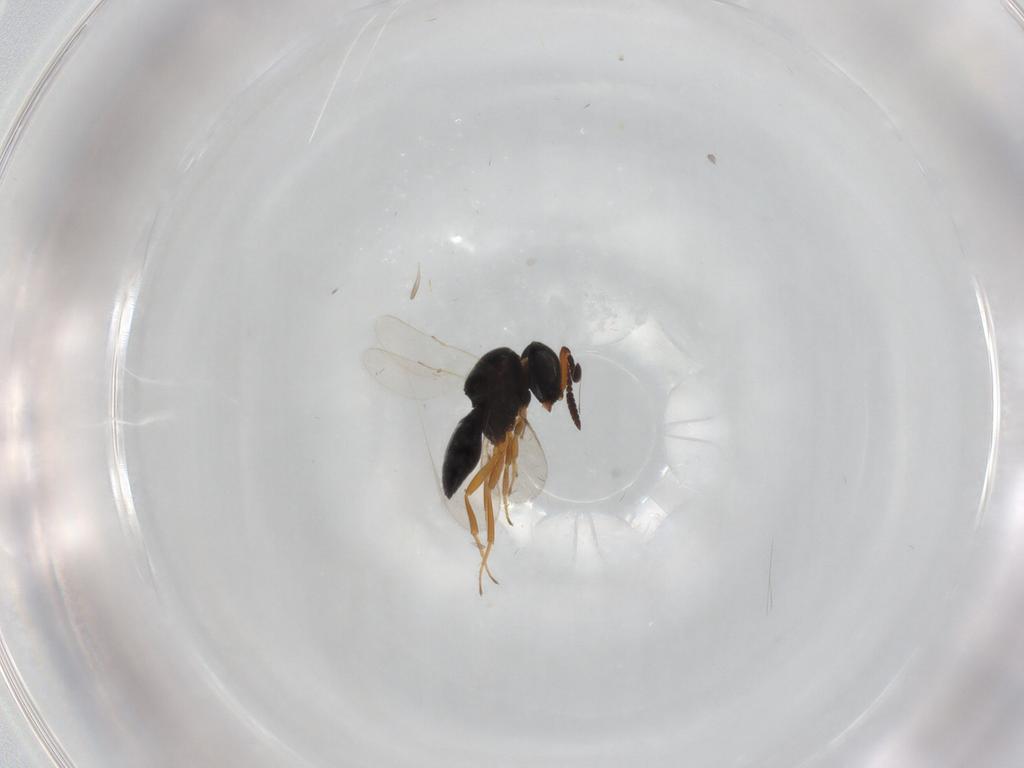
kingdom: Animalia
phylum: Arthropoda
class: Insecta
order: Hymenoptera
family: Scelionidae
